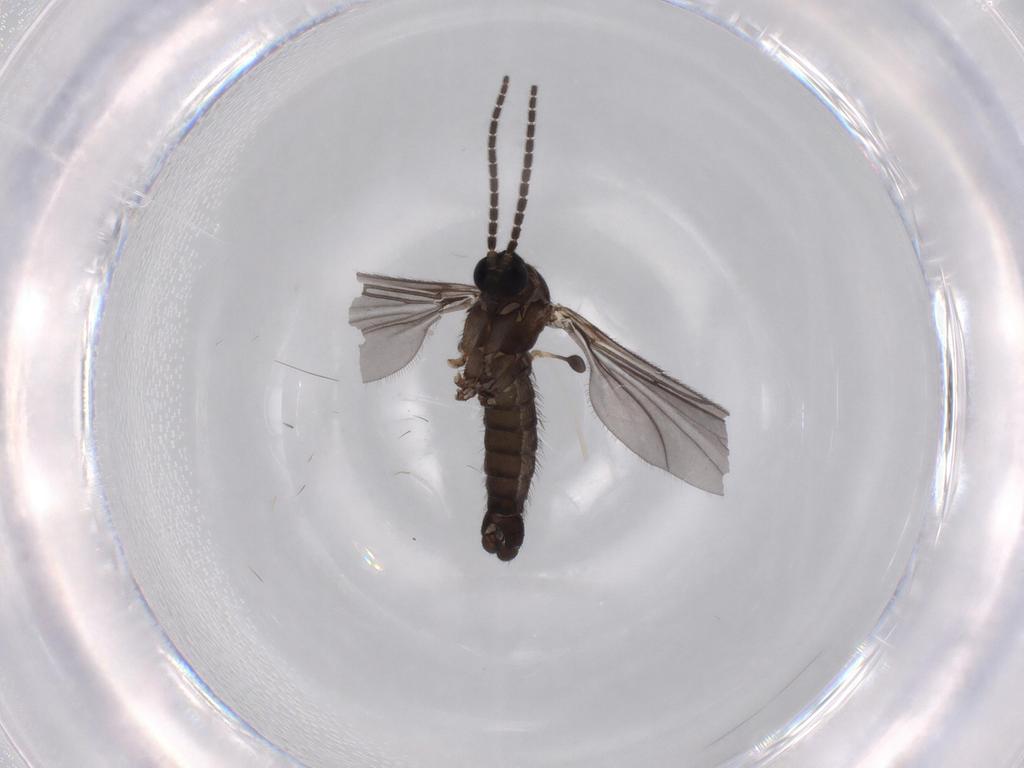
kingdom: Animalia
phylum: Arthropoda
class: Insecta
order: Diptera
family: Sciaridae
